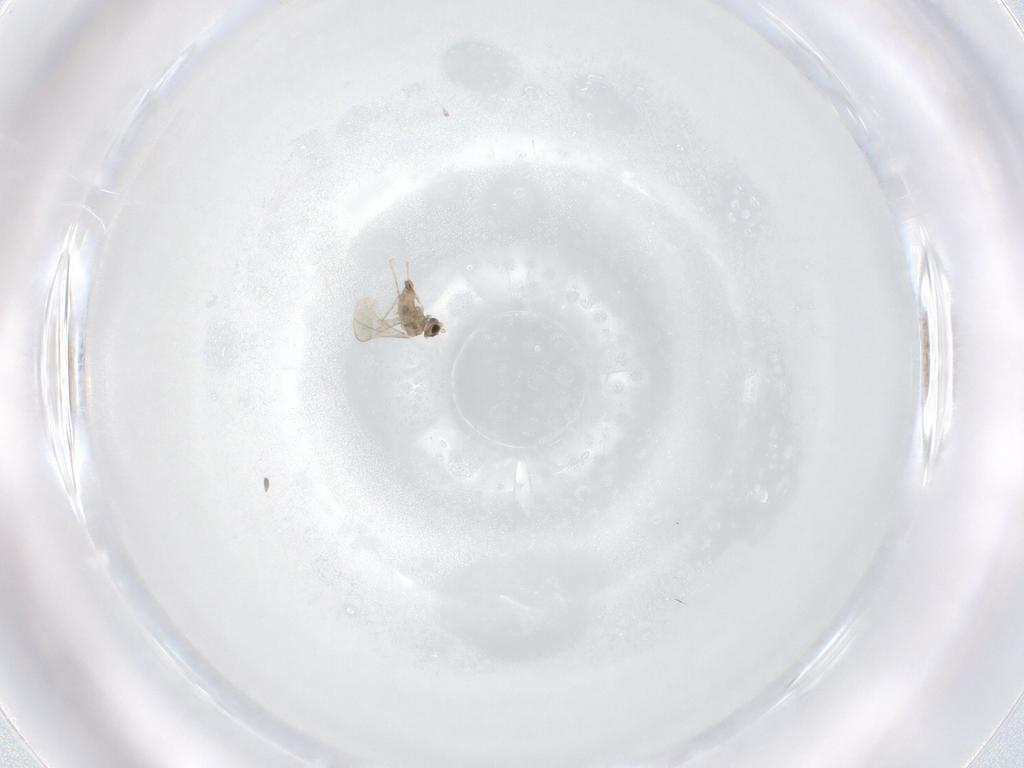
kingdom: Animalia
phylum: Arthropoda
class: Insecta
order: Diptera
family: Cecidomyiidae
